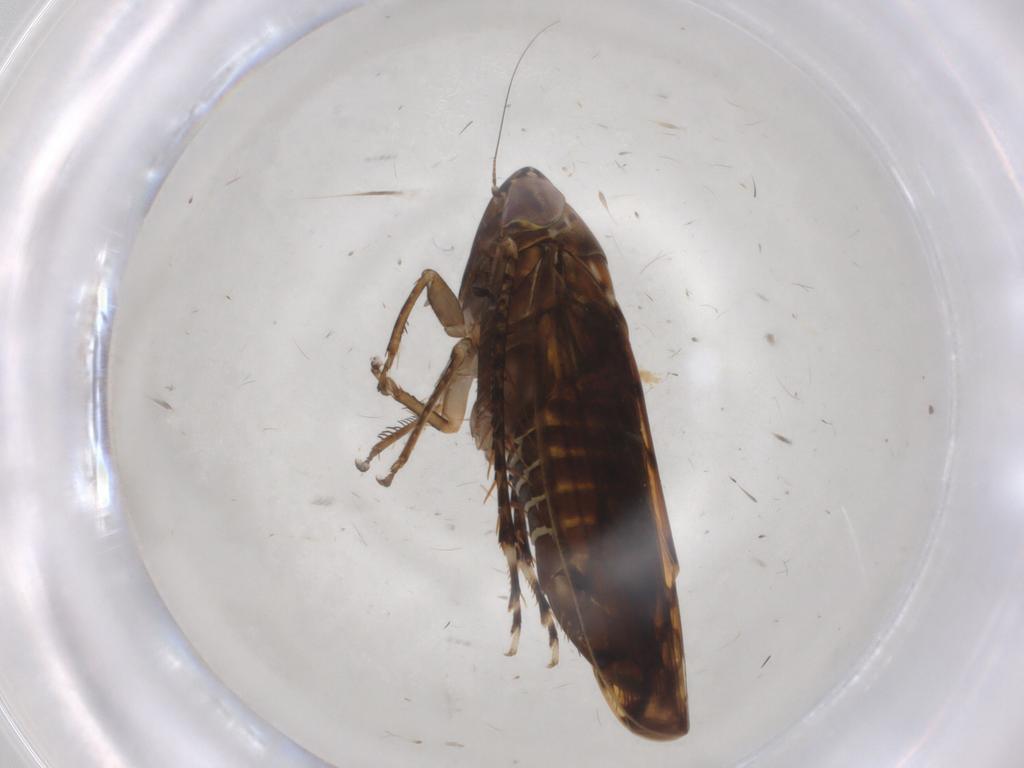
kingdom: Animalia
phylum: Arthropoda
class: Insecta
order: Hemiptera
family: Cicadellidae
